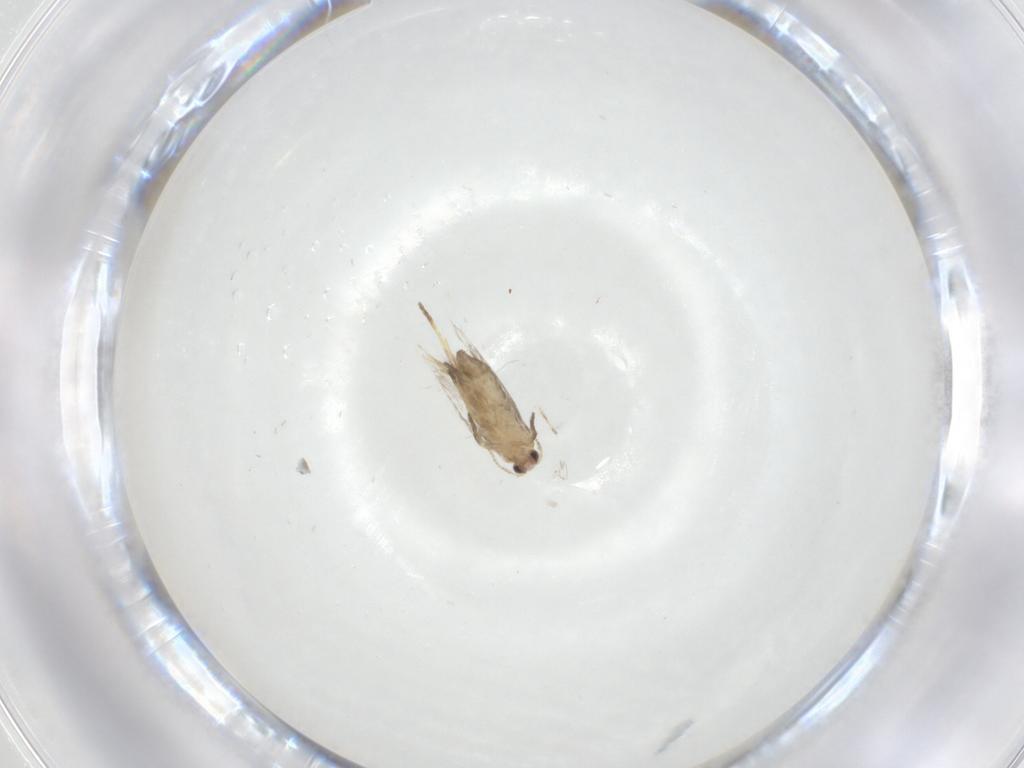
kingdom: Animalia
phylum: Arthropoda
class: Insecta
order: Lepidoptera
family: Nepticulidae
